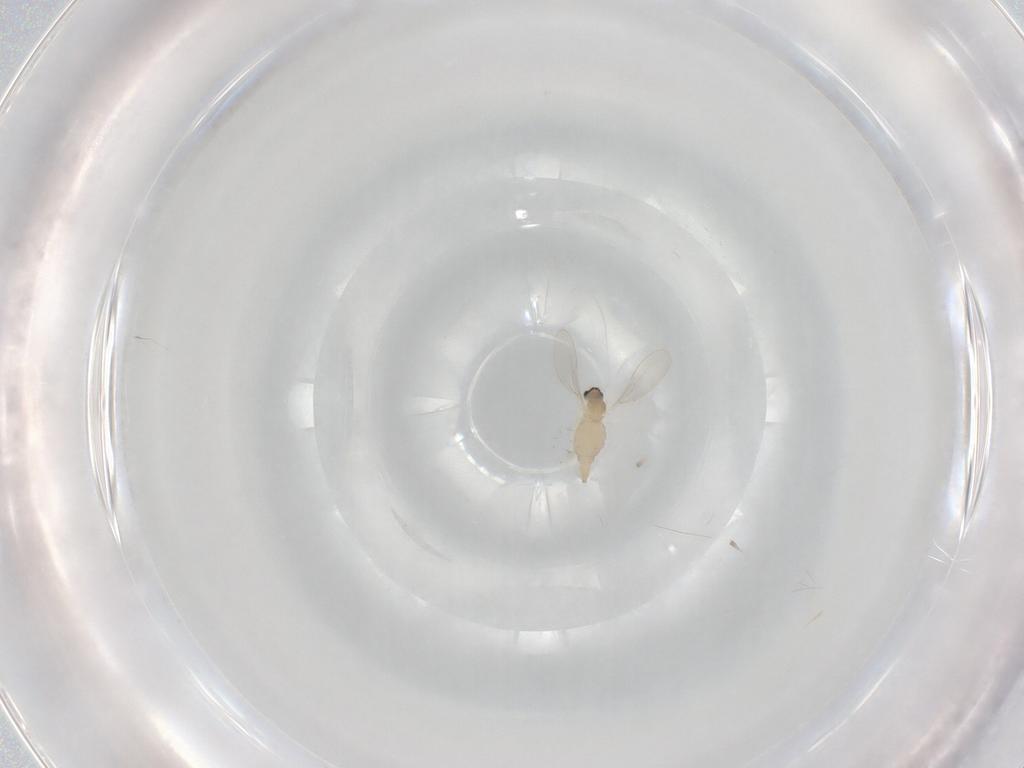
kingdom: Animalia
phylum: Arthropoda
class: Insecta
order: Diptera
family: Cecidomyiidae
